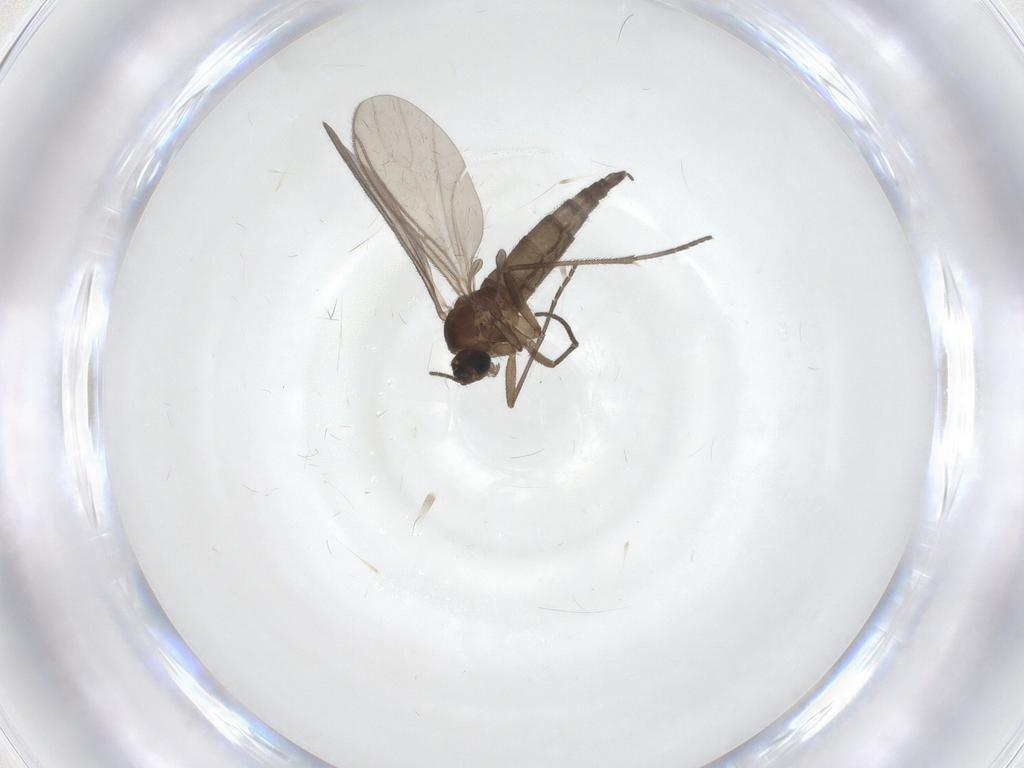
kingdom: Animalia
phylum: Arthropoda
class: Insecta
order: Diptera
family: Sciaridae
